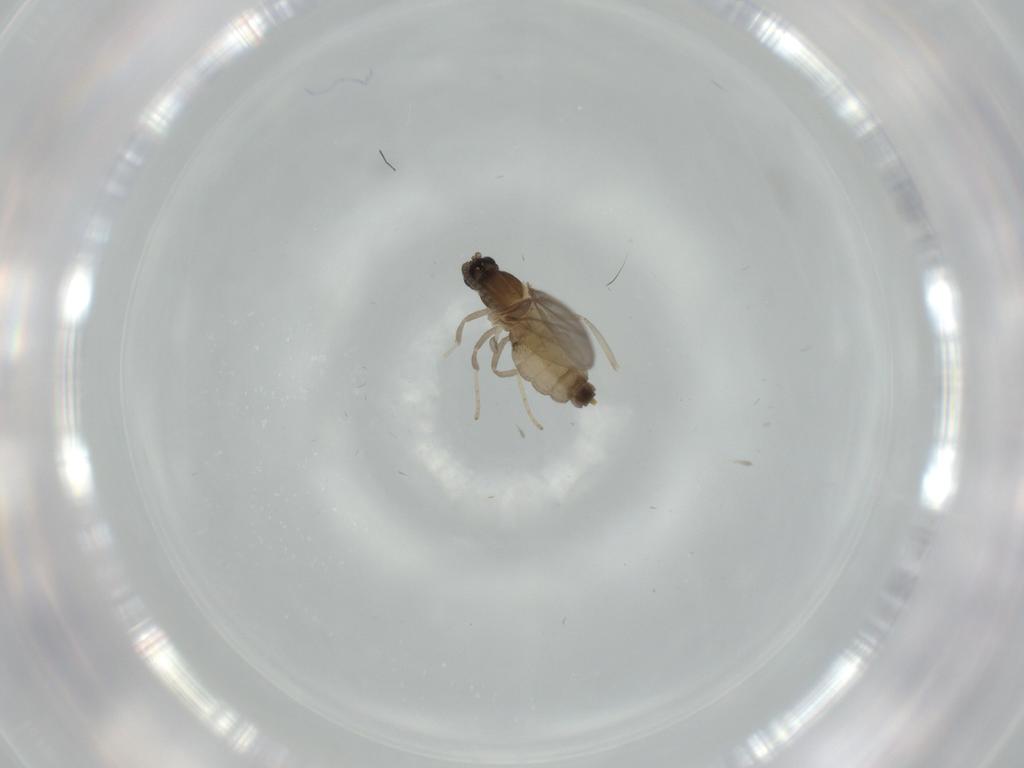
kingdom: Animalia
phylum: Arthropoda
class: Insecta
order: Diptera
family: Cecidomyiidae
